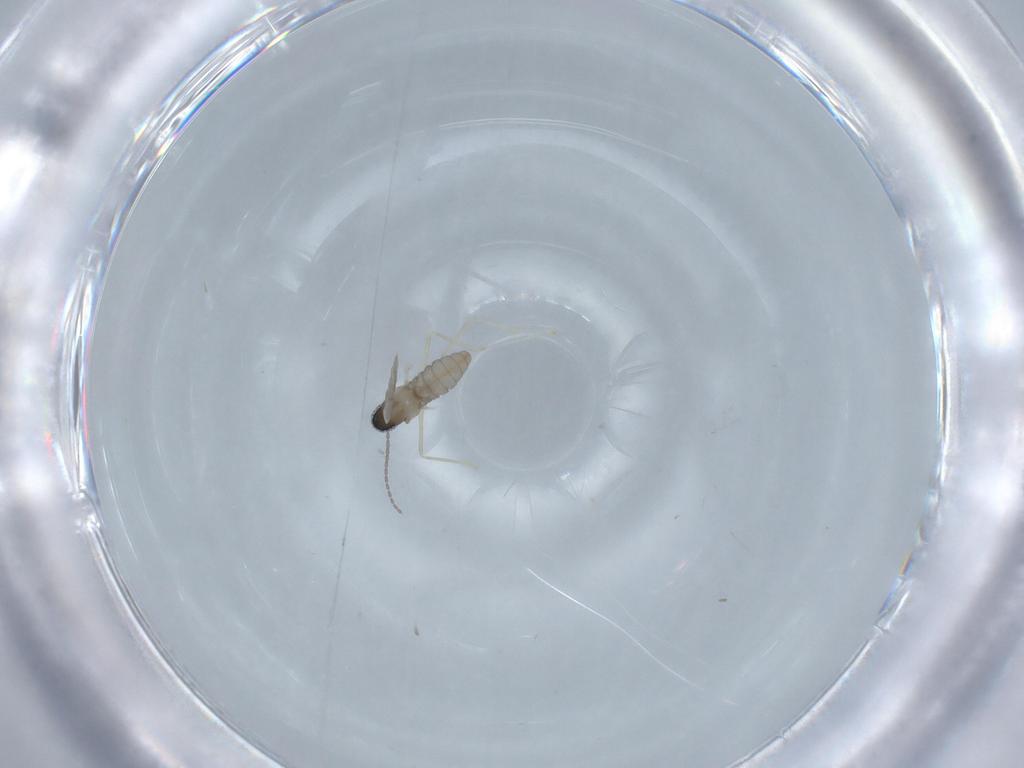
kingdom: Animalia
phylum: Arthropoda
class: Insecta
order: Diptera
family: Cecidomyiidae
